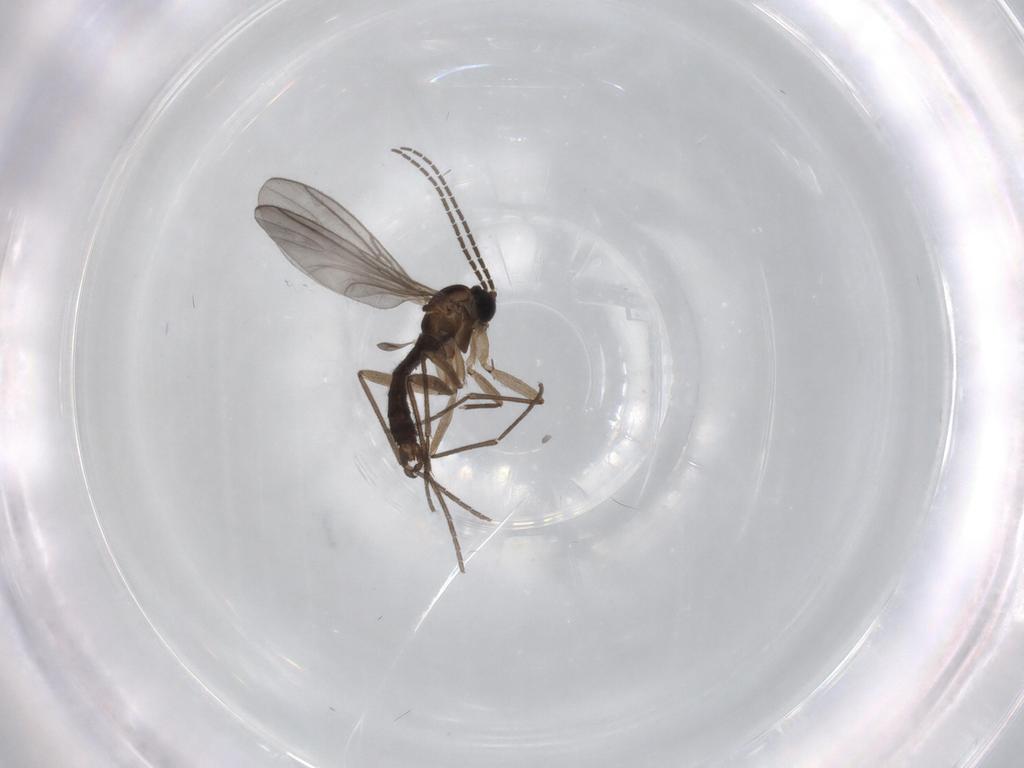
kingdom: Animalia
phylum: Arthropoda
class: Insecta
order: Diptera
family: Sciaridae
